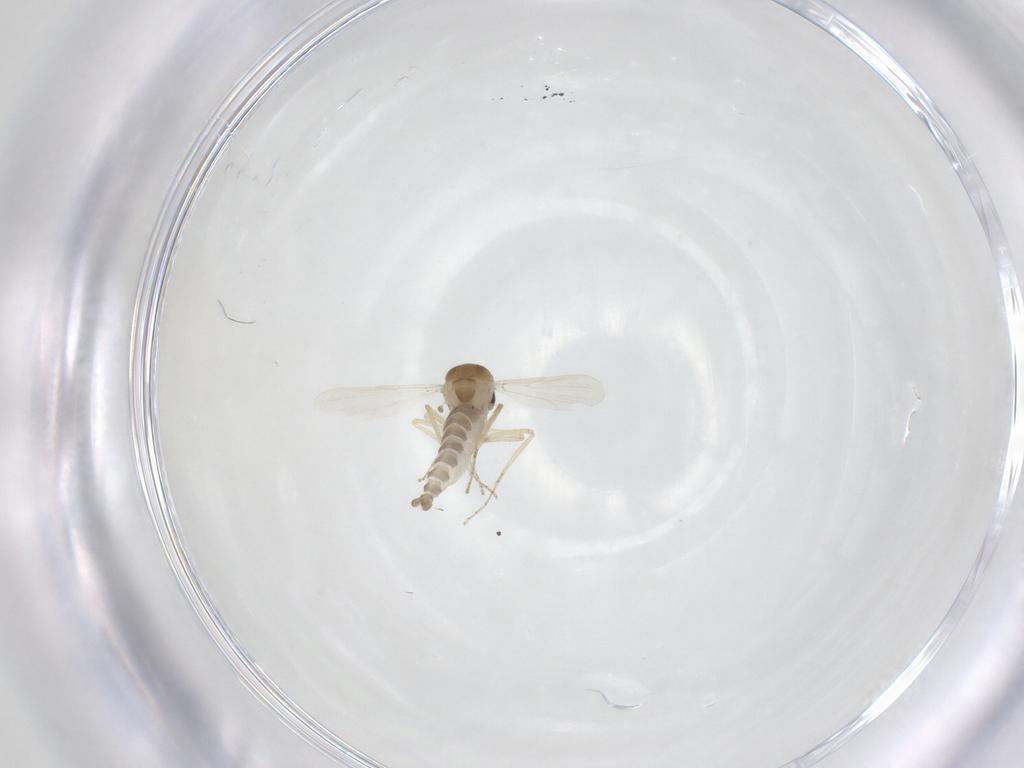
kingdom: Animalia
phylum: Arthropoda
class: Insecta
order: Diptera
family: Ceratopogonidae
